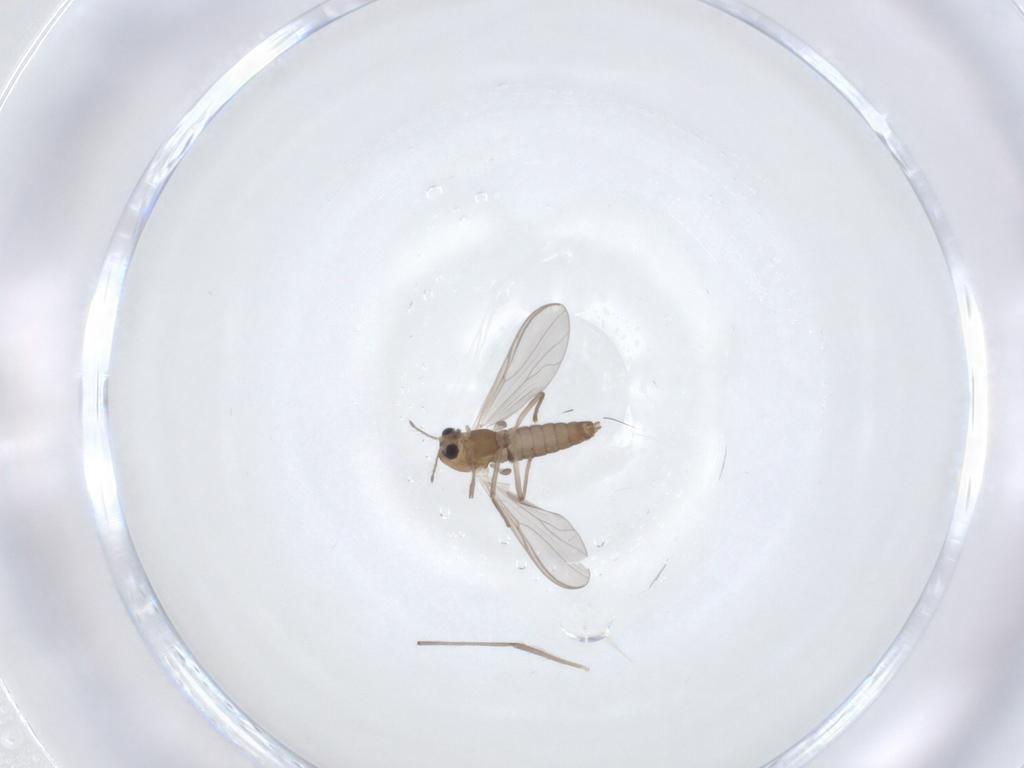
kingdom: Animalia
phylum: Arthropoda
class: Insecta
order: Diptera
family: Chironomidae
